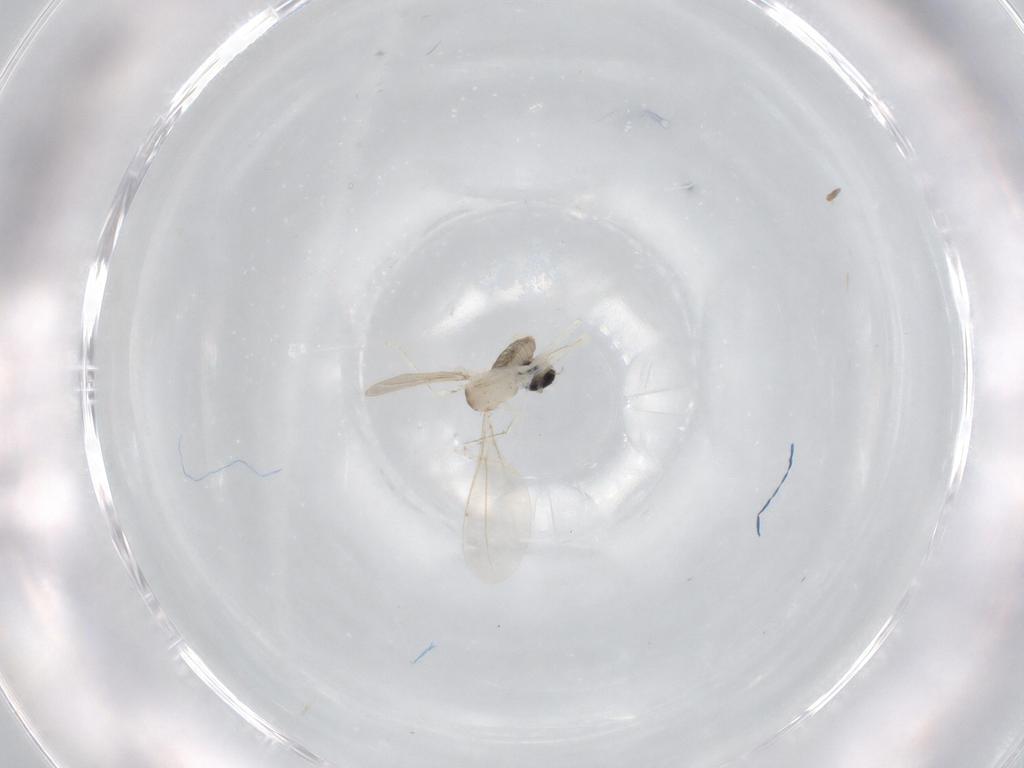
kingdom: Animalia
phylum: Arthropoda
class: Insecta
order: Diptera
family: Cecidomyiidae
